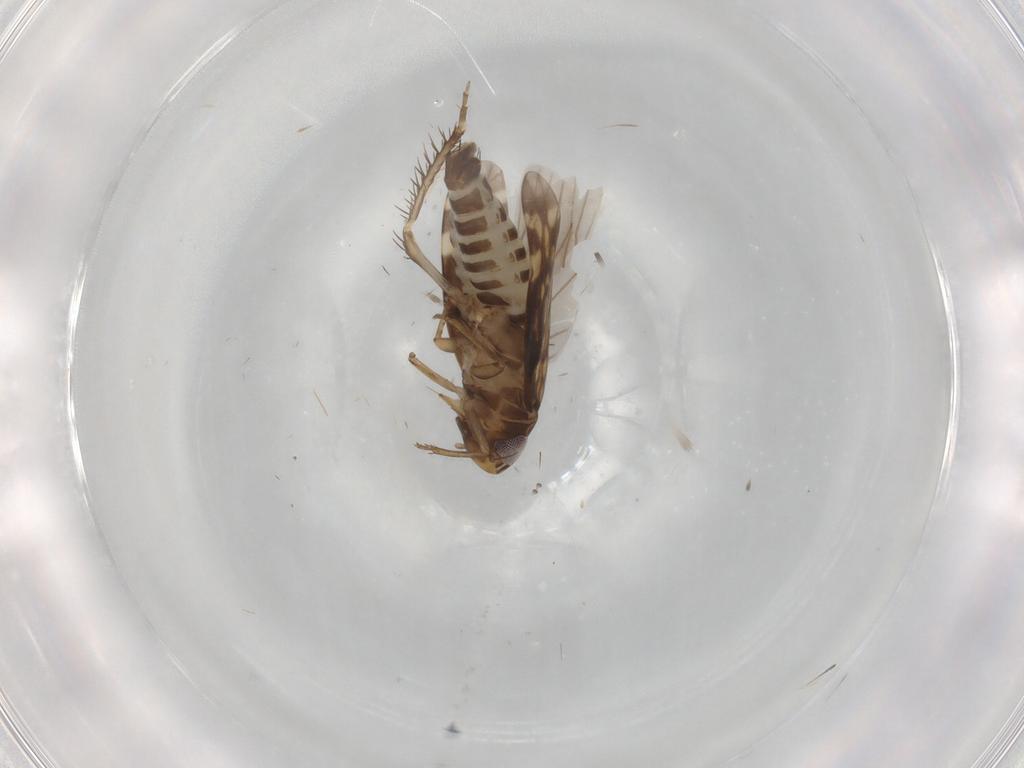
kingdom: Animalia
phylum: Arthropoda
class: Insecta
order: Hemiptera
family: Cicadellidae
